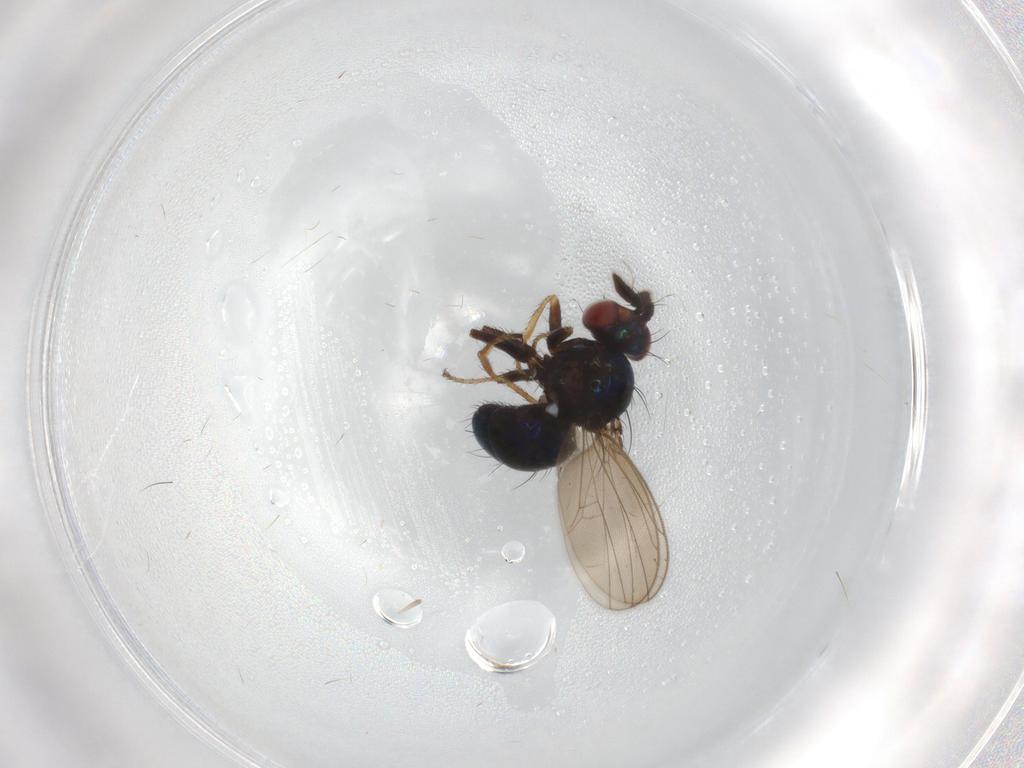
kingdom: Animalia
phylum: Arthropoda
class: Insecta
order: Diptera
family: Ephydridae
